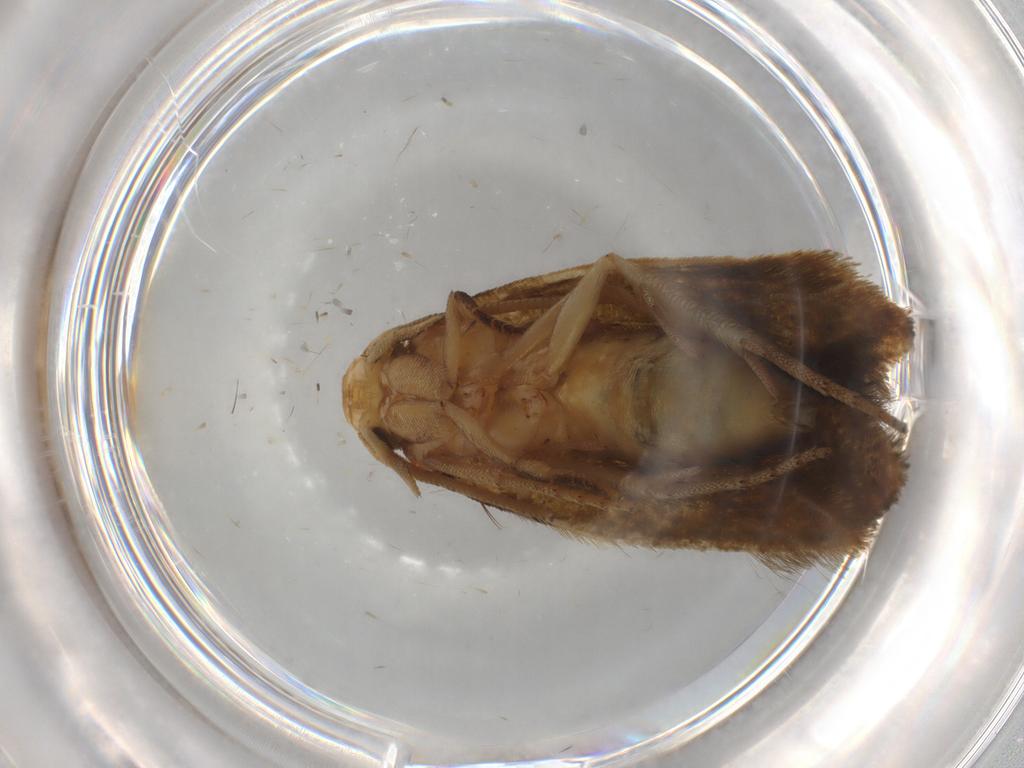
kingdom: Animalia
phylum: Arthropoda
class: Insecta
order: Lepidoptera
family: Tineidae
